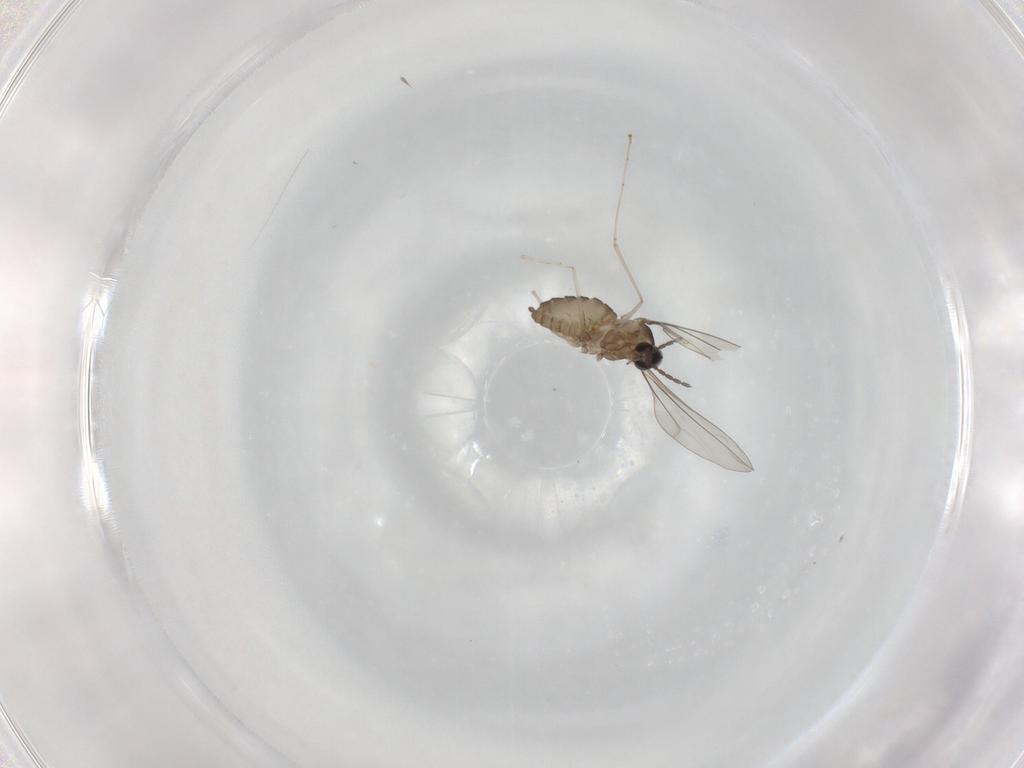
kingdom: Animalia
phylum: Arthropoda
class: Insecta
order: Diptera
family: Cecidomyiidae
